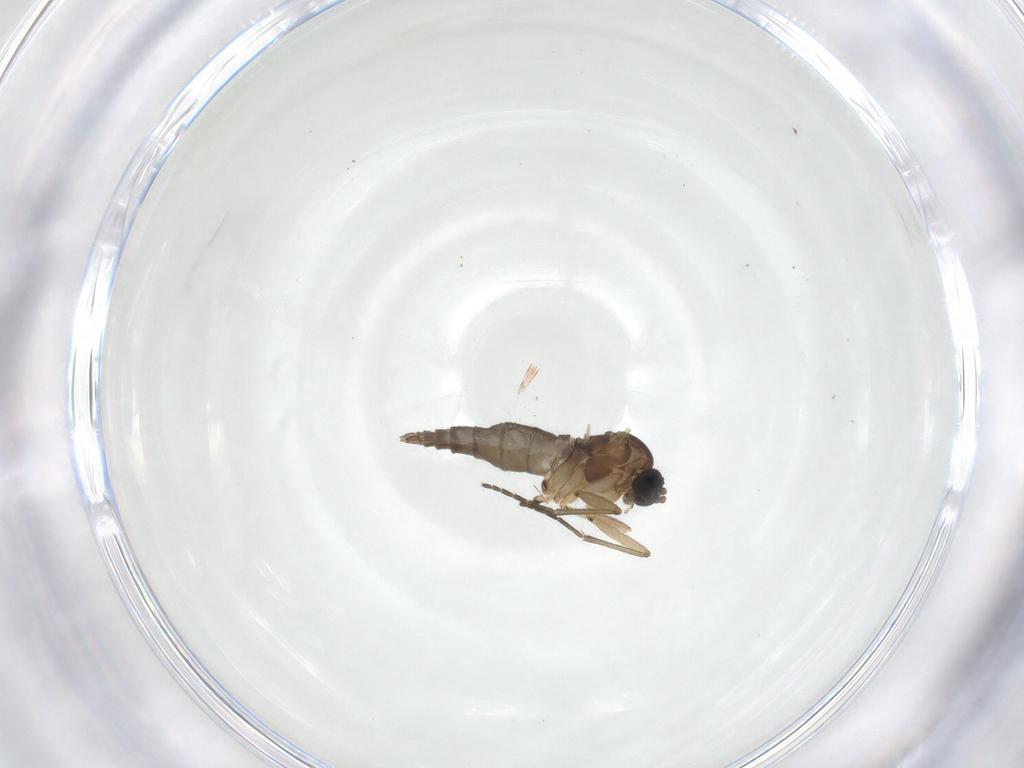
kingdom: Animalia
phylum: Arthropoda
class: Insecta
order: Diptera
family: Sciaridae
